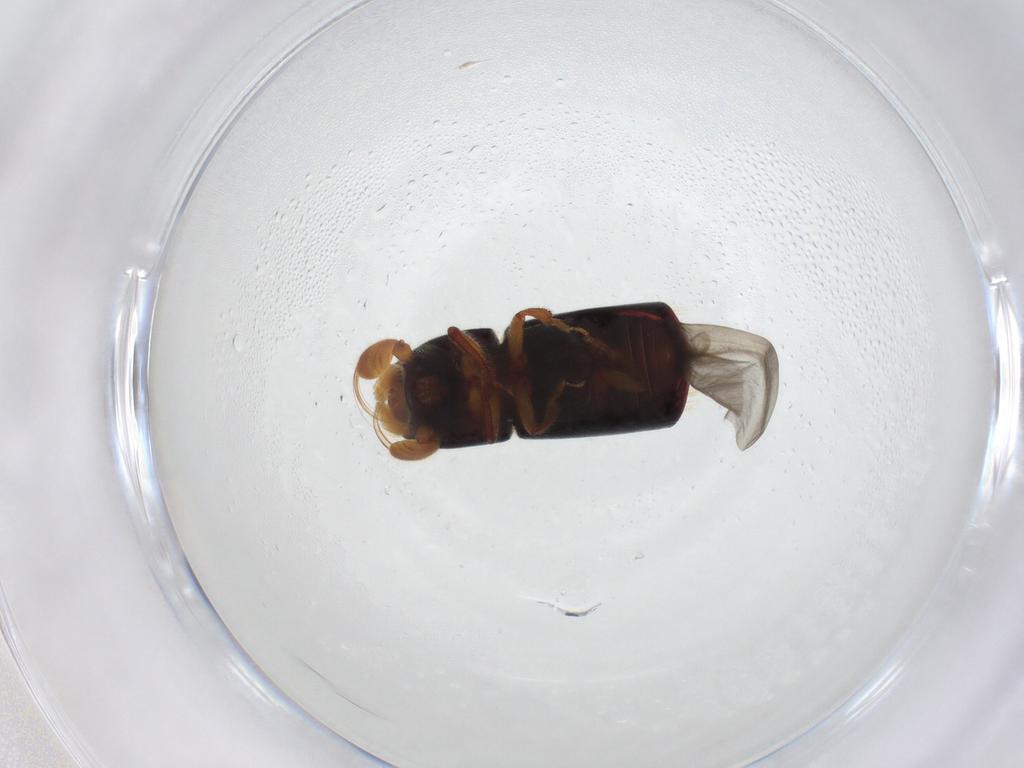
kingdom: Animalia
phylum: Arthropoda
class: Insecta
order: Coleoptera
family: Curculionidae
